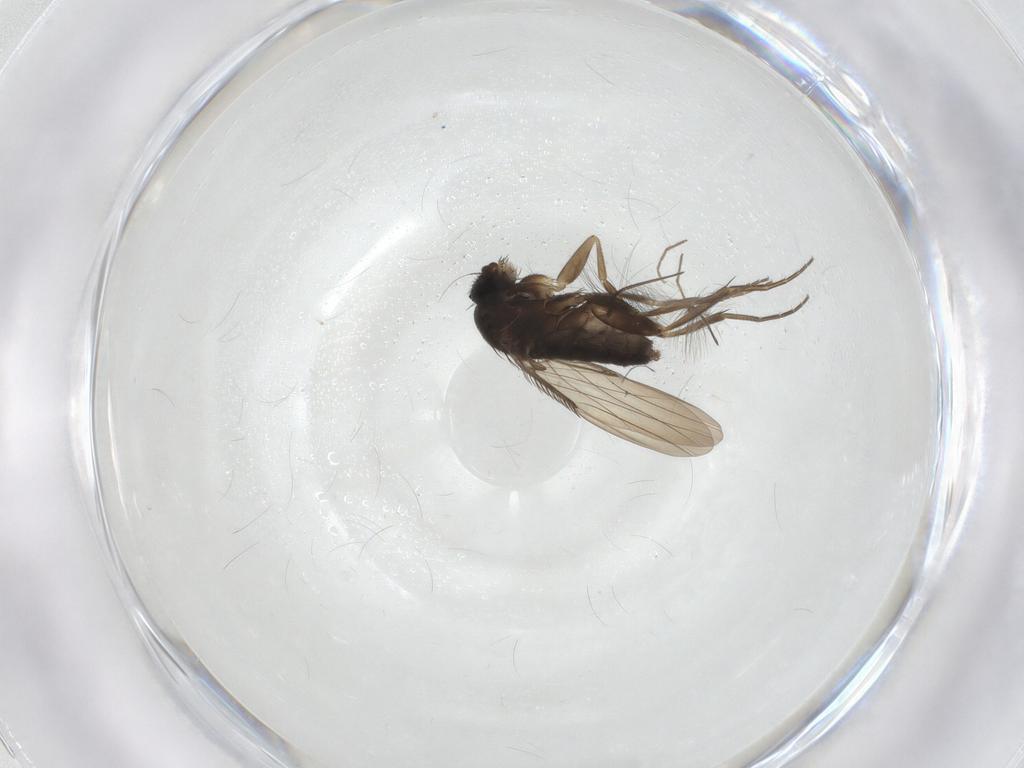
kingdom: Animalia
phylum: Arthropoda
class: Insecta
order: Diptera
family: Phoridae
